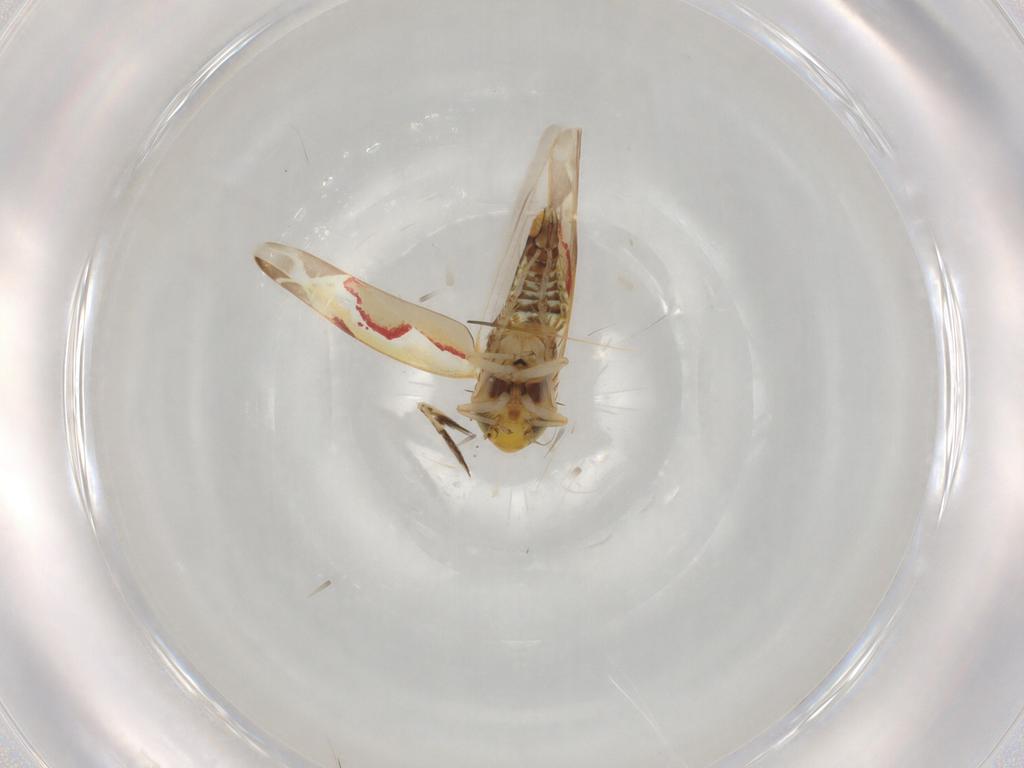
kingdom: Animalia
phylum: Arthropoda
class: Insecta
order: Hemiptera
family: Cicadellidae
